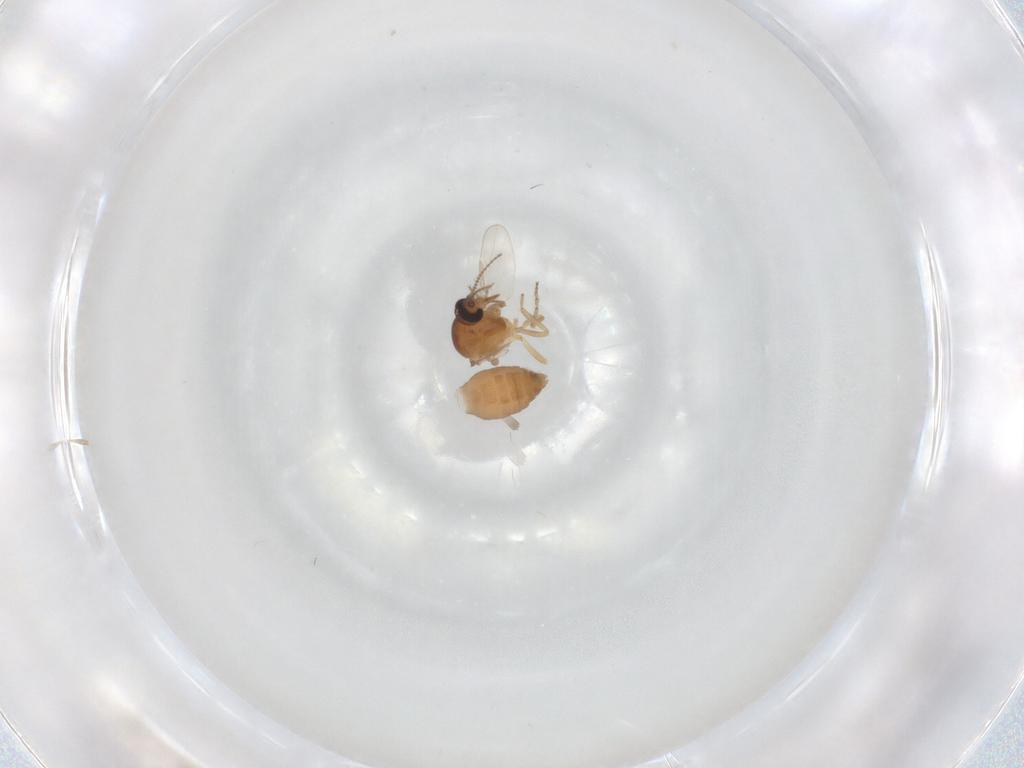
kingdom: Animalia
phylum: Arthropoda
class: Insecta
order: Diptera
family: Ceratopogonidae
